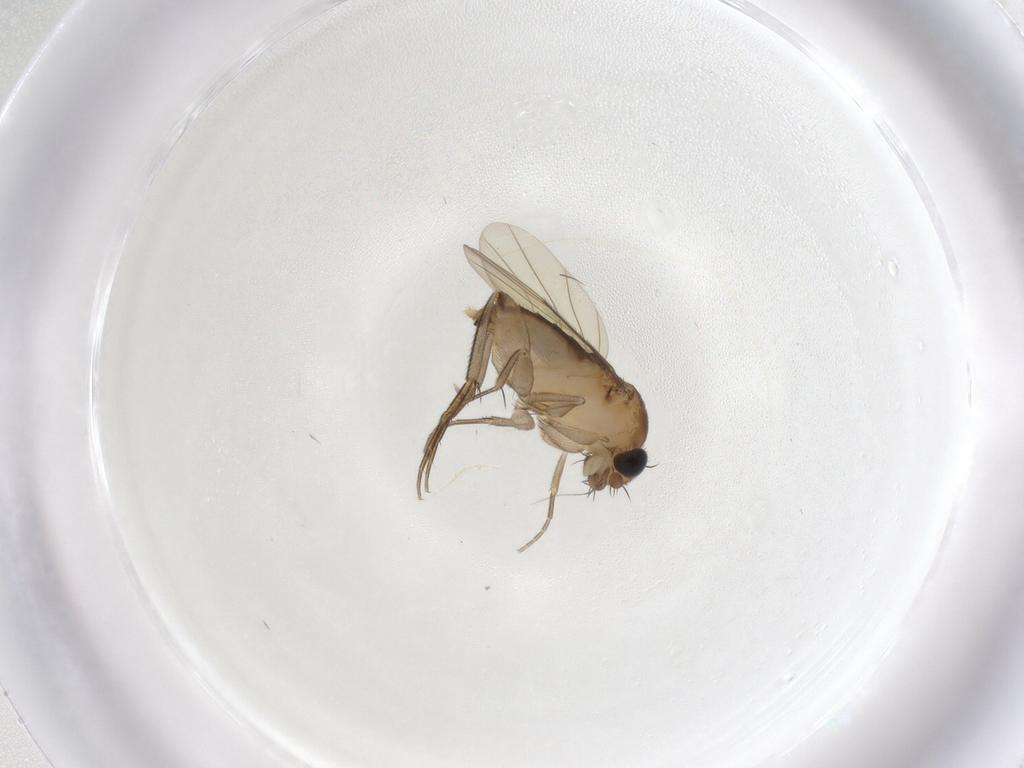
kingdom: Animalia
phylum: Arthropoda
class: Insecta
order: Diptera
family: Phoridae
